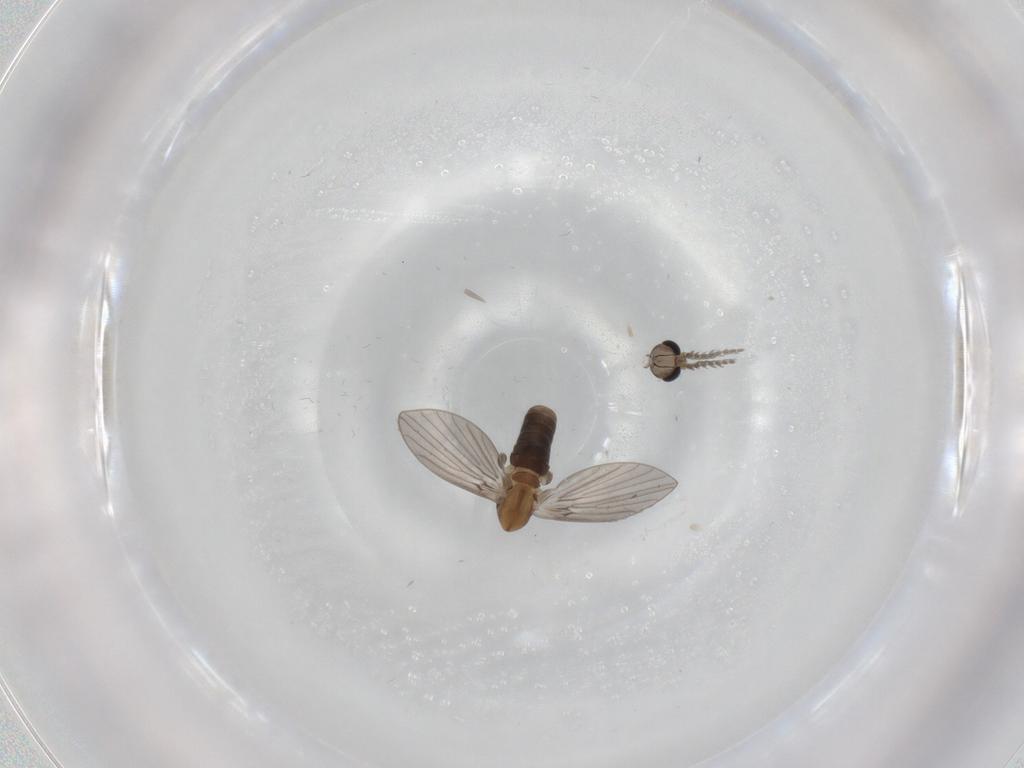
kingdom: Animalia
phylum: Arthropoda
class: Insecta
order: Diptera
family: Psychodidae
